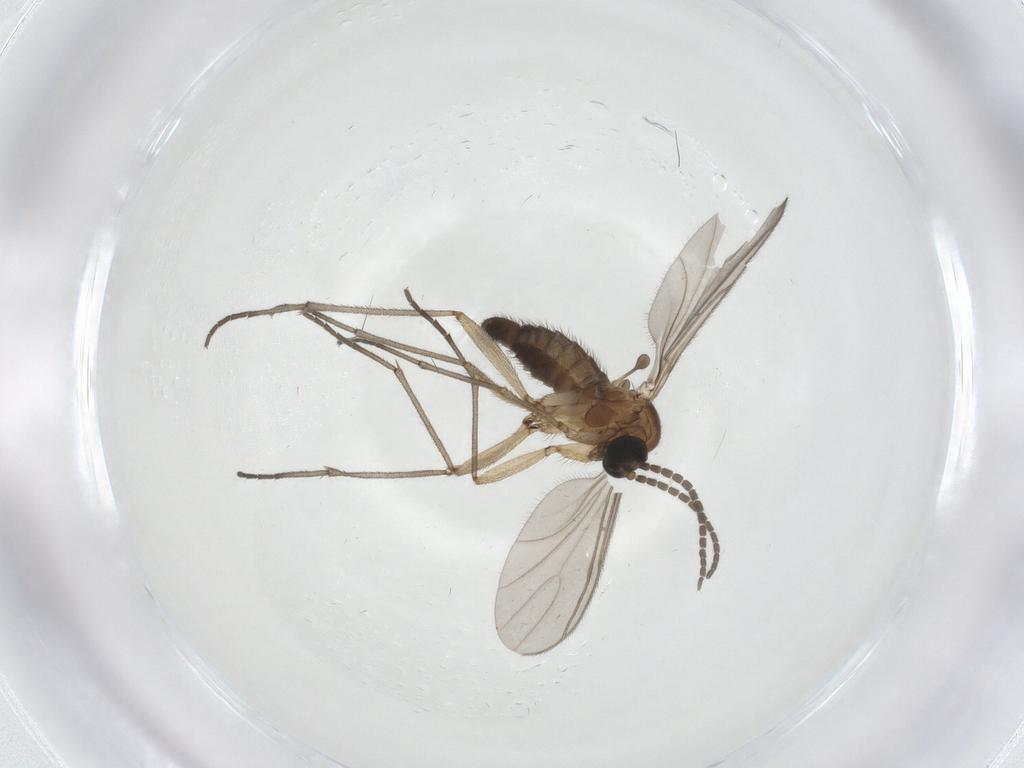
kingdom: Animalia
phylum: Arthropoda
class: Insecta
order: Diptera
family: Sciaridae
